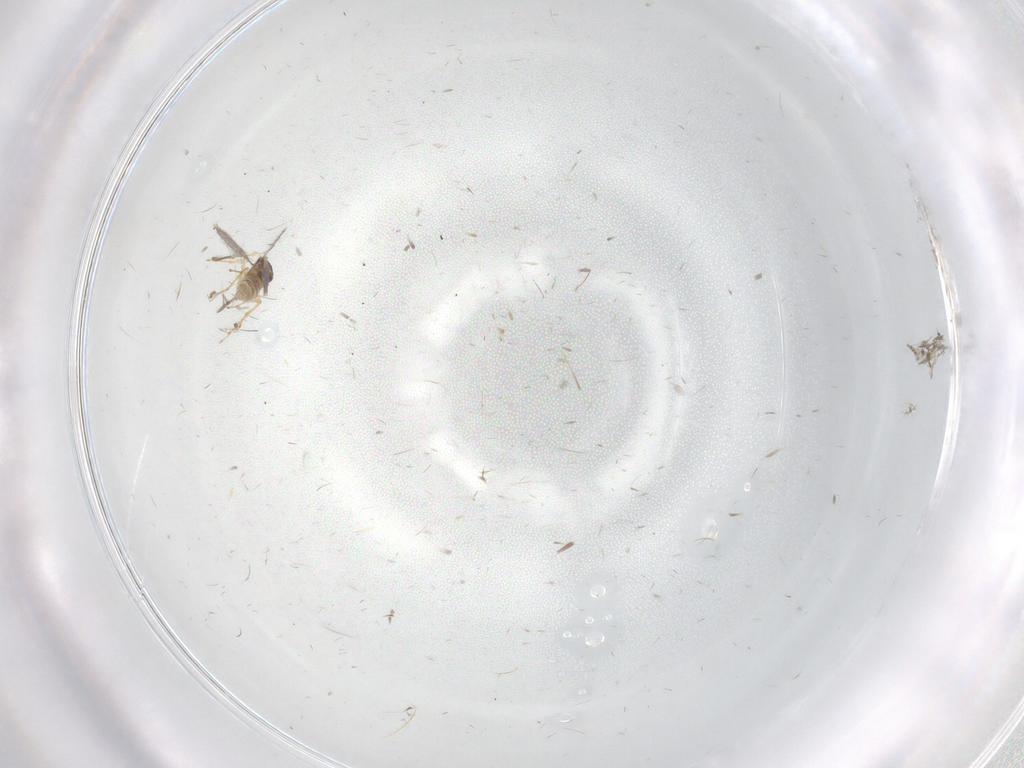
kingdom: Animalia
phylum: Arthropoda
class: Insecta
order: Hymenoptera
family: Mymaridae
